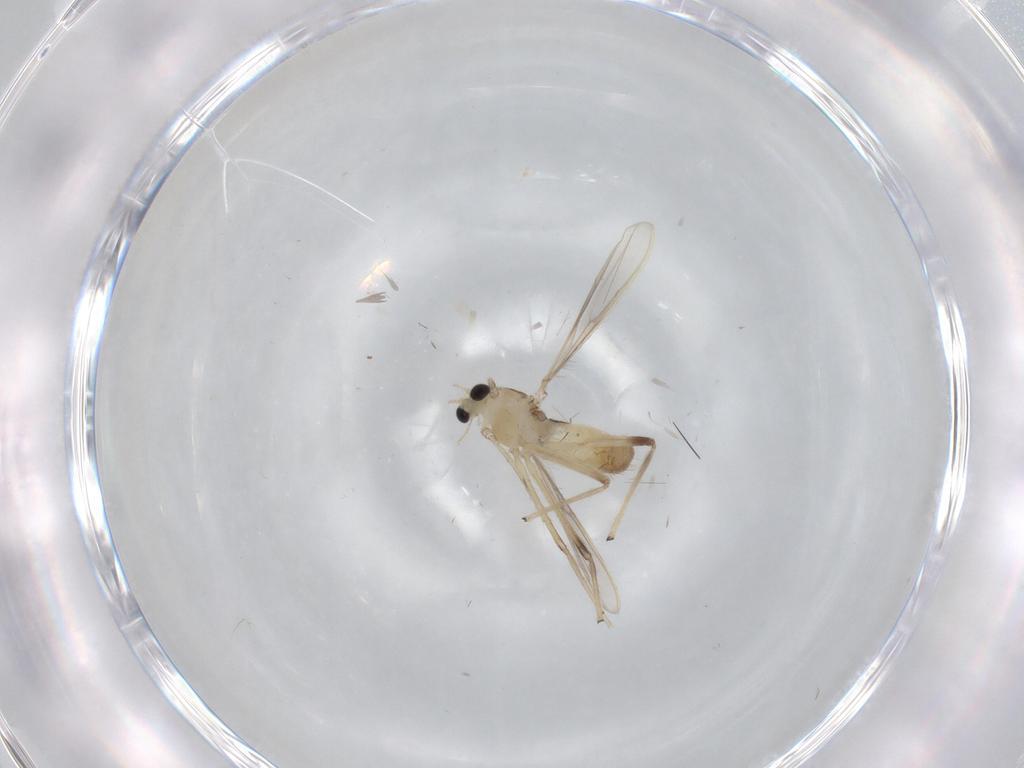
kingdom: Animalia
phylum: Arthropoda
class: Insecta
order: Diptera
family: Chironomidae
